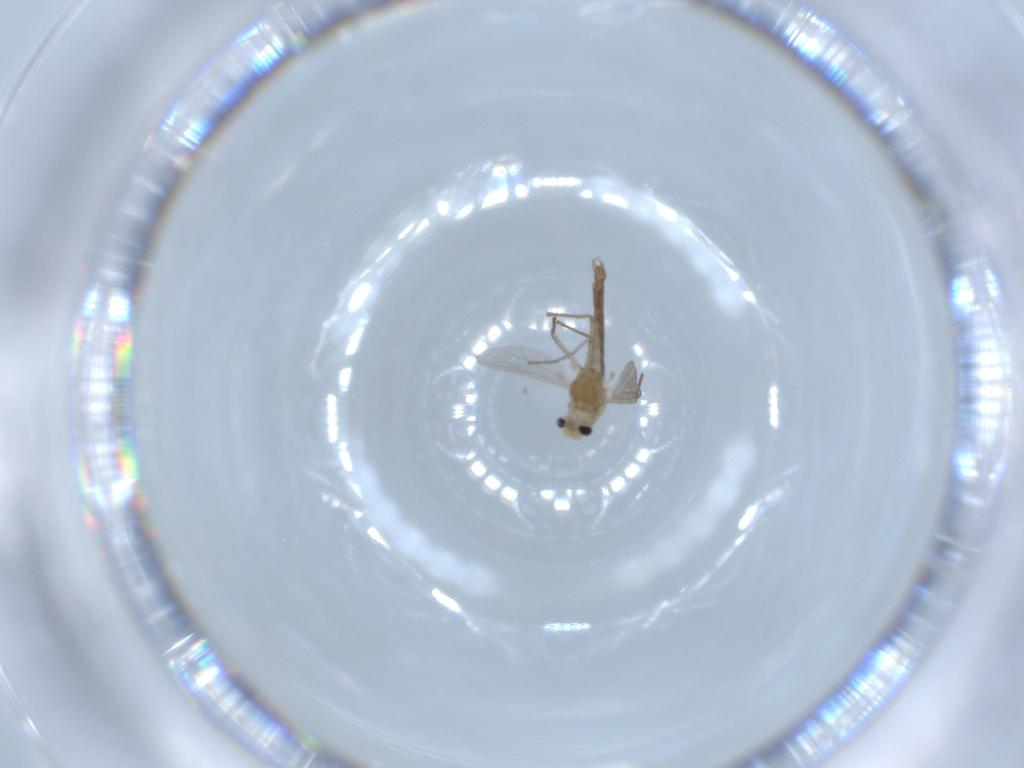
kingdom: Animalia
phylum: Arthropoda
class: Insecta
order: Diptera
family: Chironomidae
